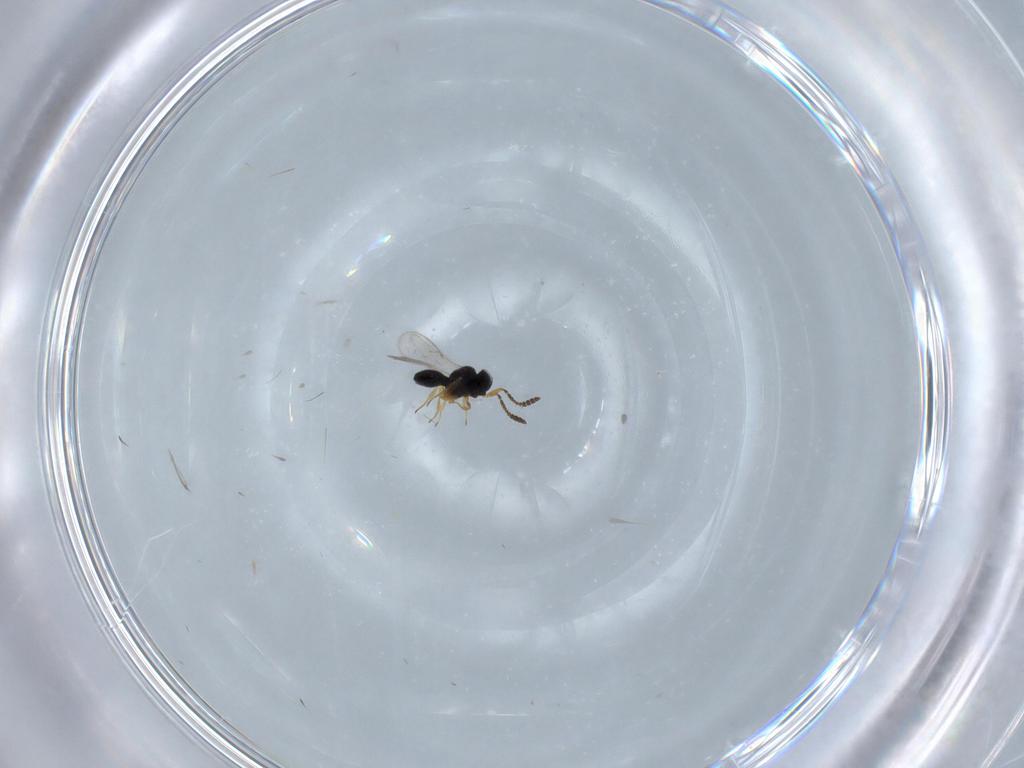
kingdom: Animalia
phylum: Arthropoda
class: Insecta
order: Hymenoptera
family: Scelionidae
